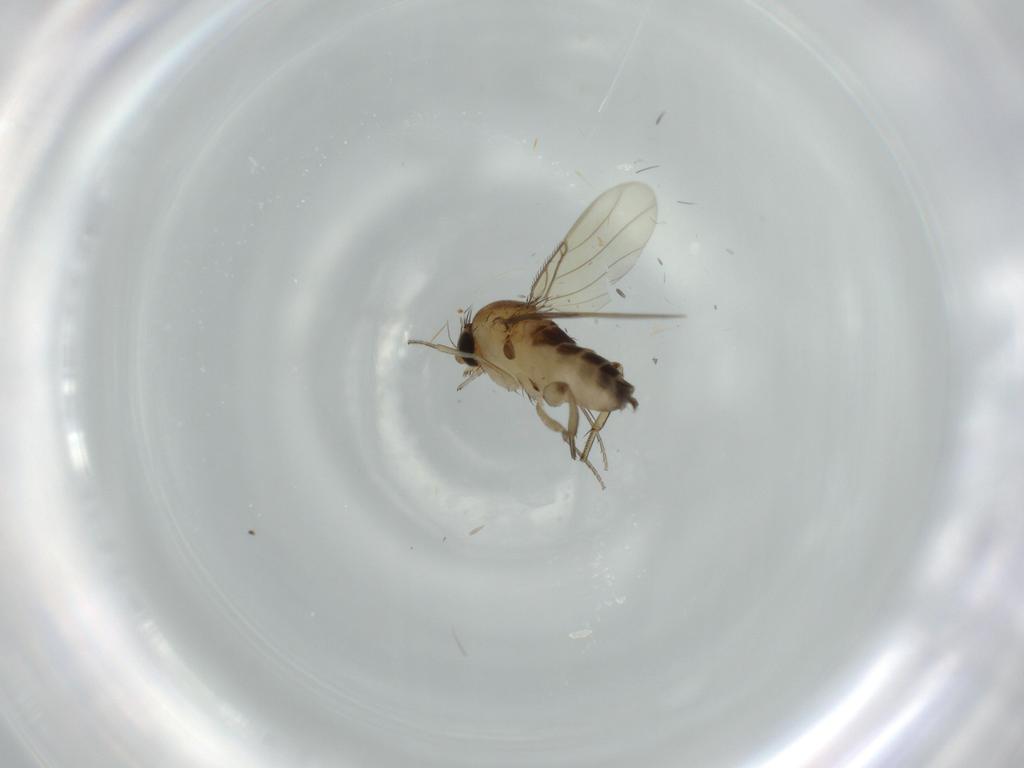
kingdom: Animalia
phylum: Arthropoda
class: Insecta
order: Diptera
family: Phoridae
